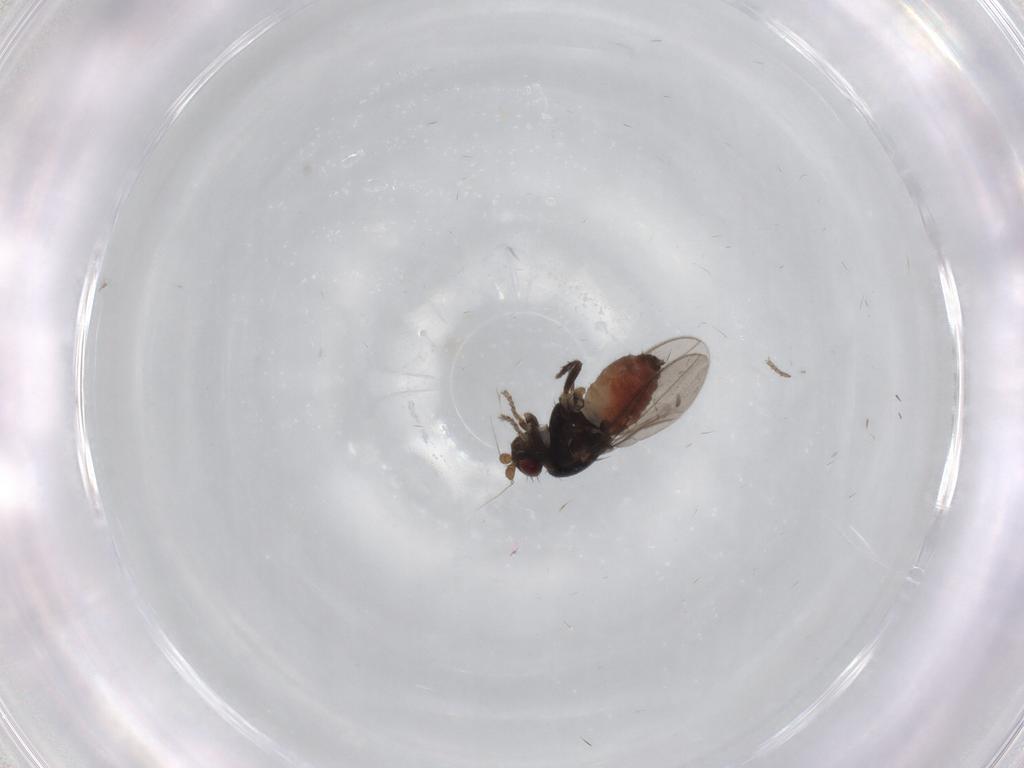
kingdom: Animalia
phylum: Arthropoda
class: Insecta
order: Diptera
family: Sphaeroceridae
